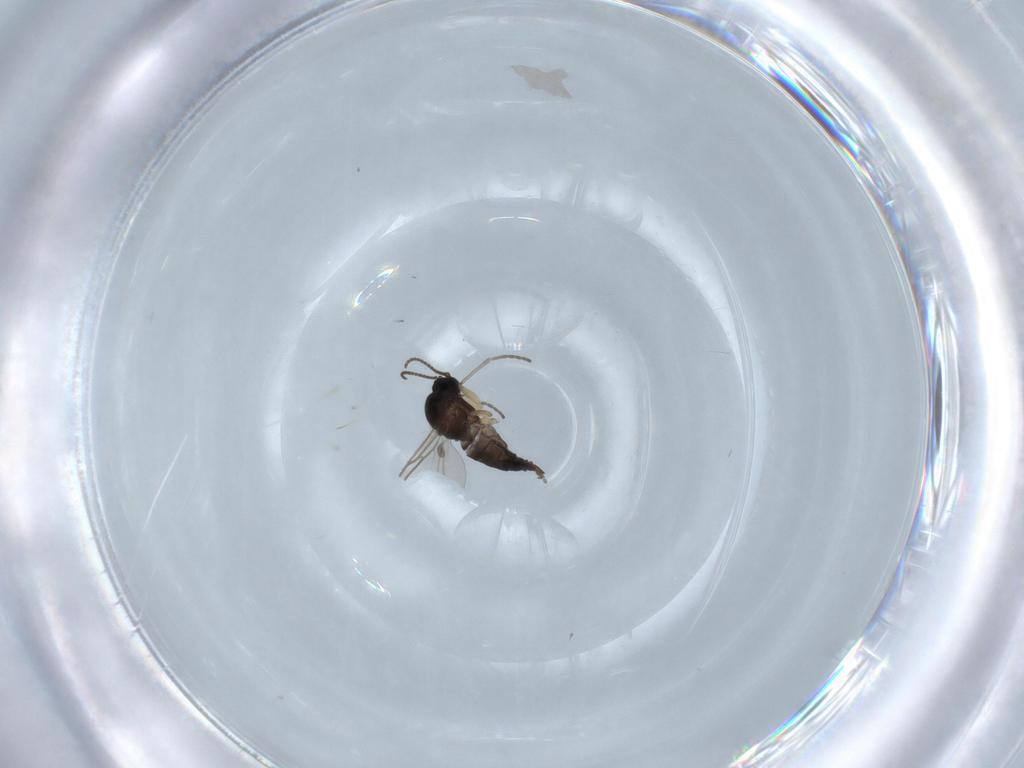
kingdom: Animalia
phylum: Arthropoda
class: Insecta
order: Diptera
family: Sciaridae
